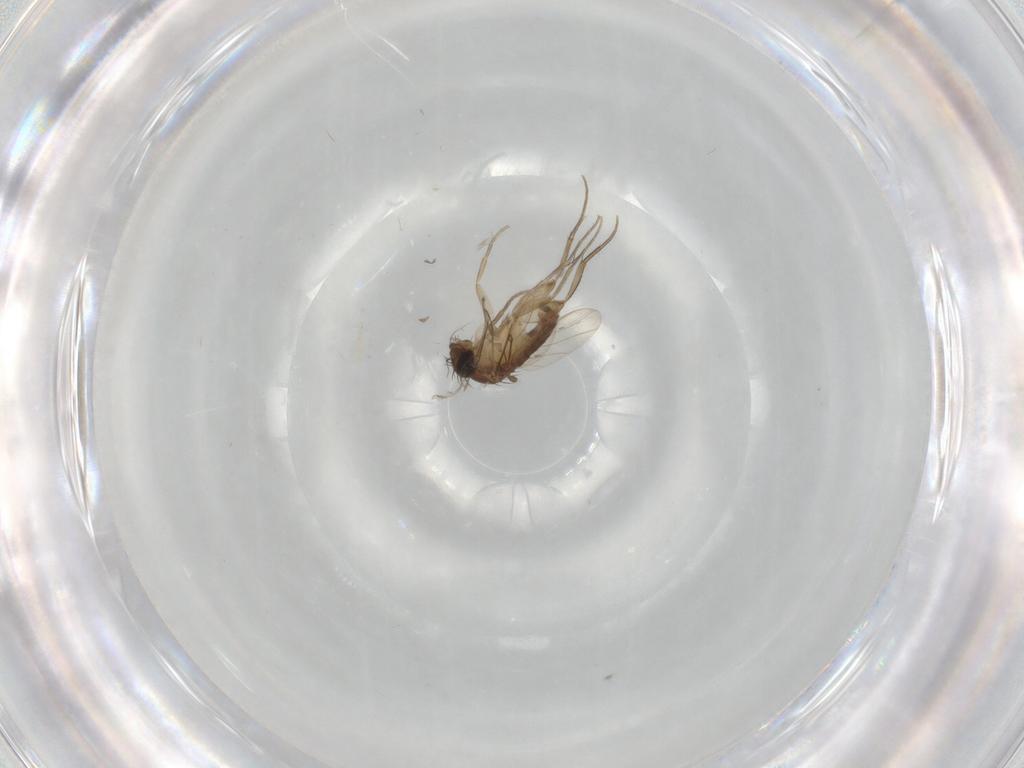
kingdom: Animalia
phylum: Arthropoda
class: Insecta
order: Diptera
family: Phoridae
